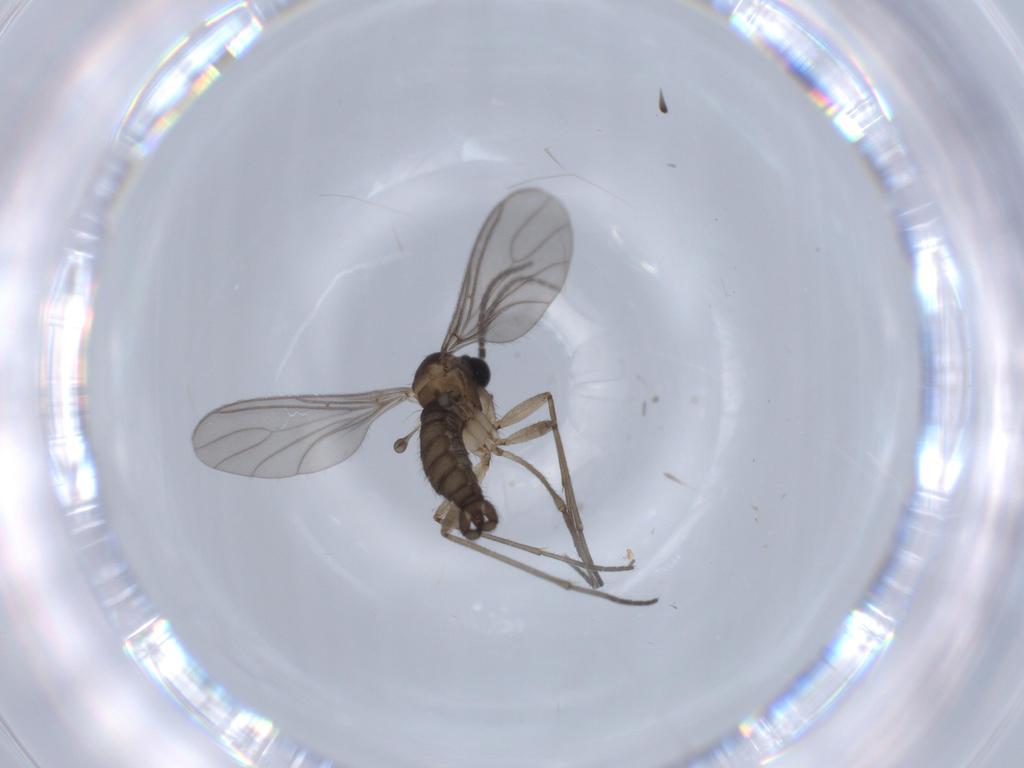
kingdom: Animalia
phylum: Arthropoda
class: Insecta
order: Diptera
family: Sciaridae
